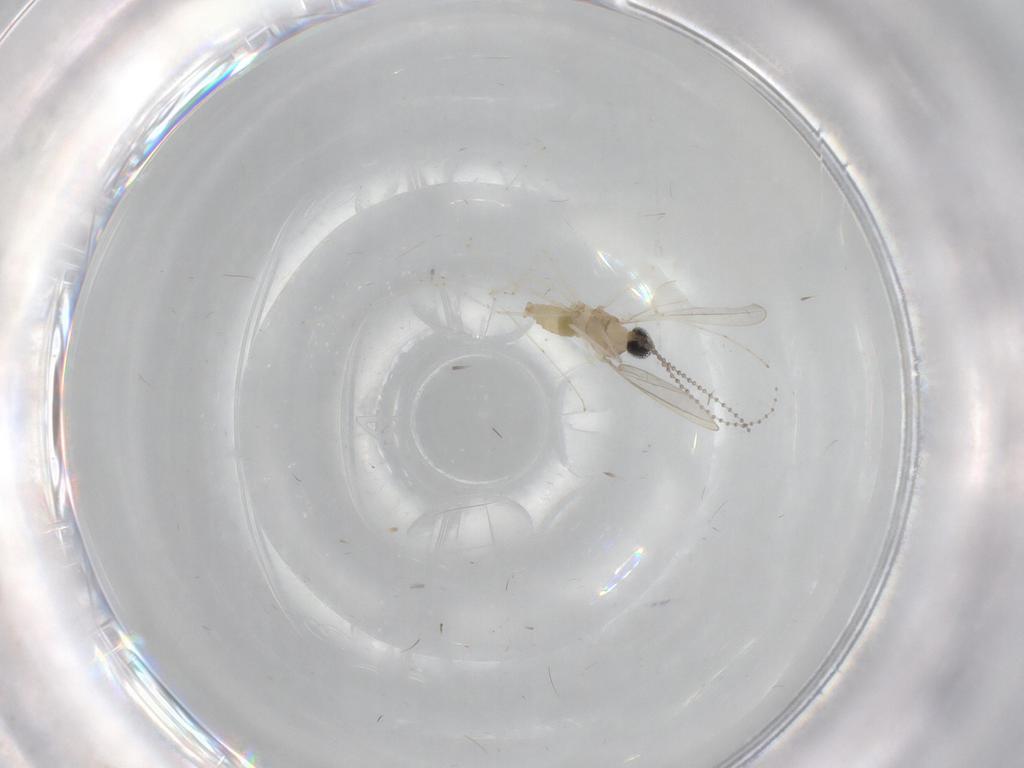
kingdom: Animalia
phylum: Arthropoda
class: Insecta
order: Diptera
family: Cecidomyiidae
